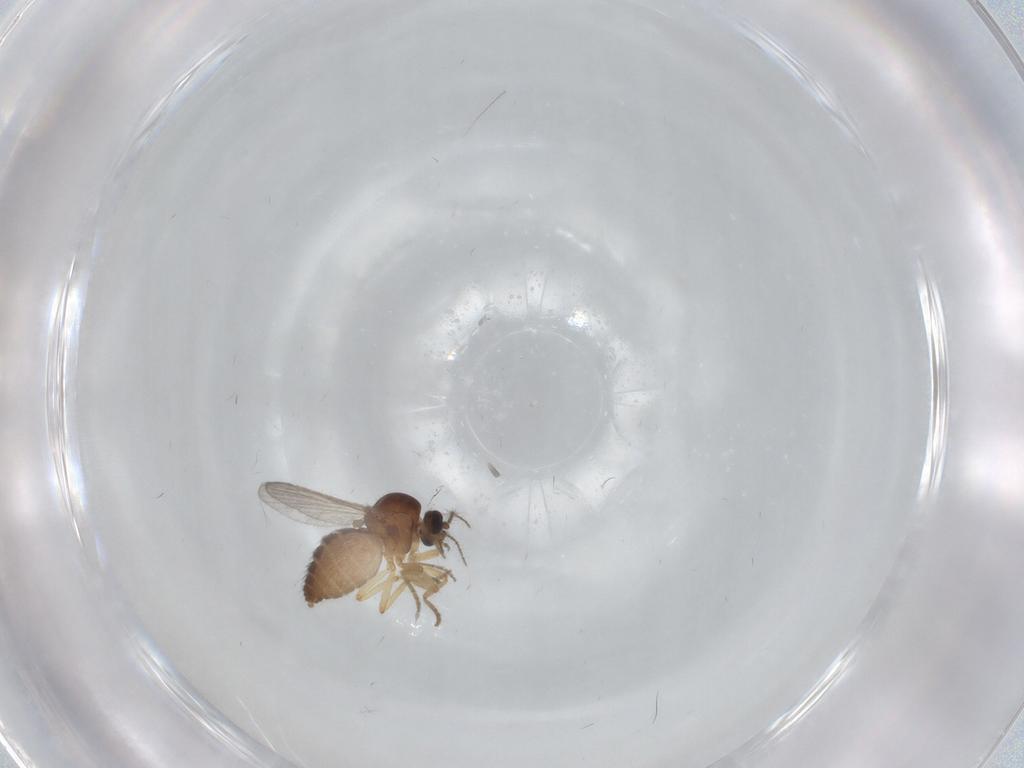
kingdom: Animalia
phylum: Arthropoda
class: Insecta
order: Diptera
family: Ceratopogonidae
